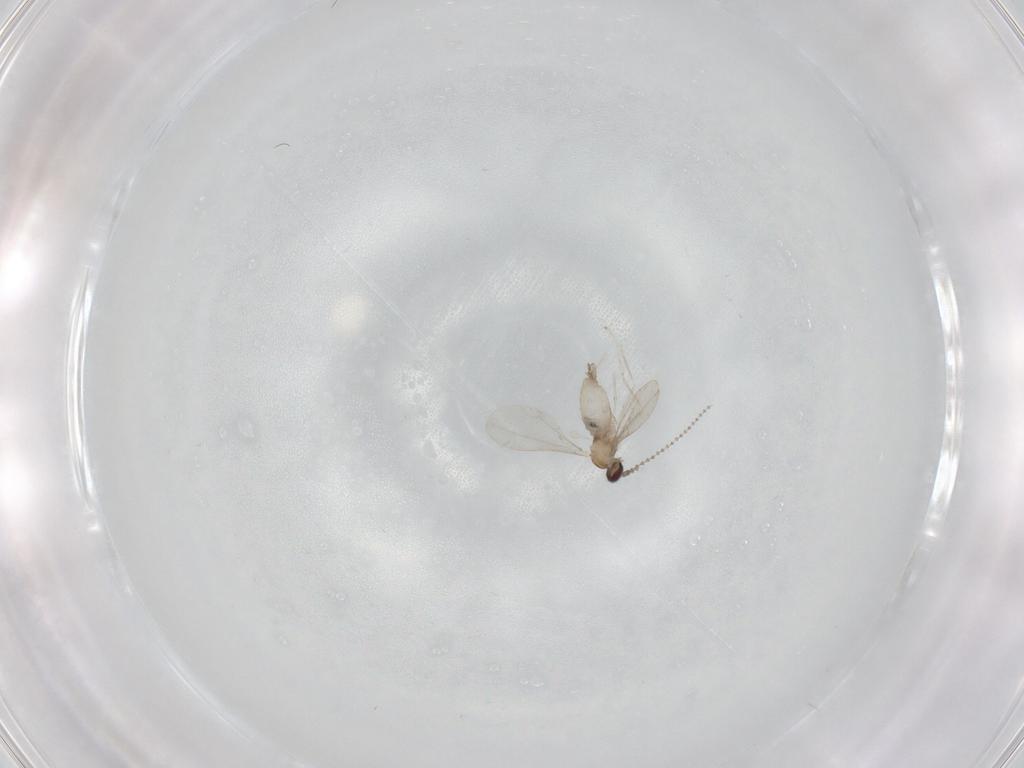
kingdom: Animalia
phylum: Arthropoda
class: Insecta
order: Diptera
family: Cecidomyiidae
